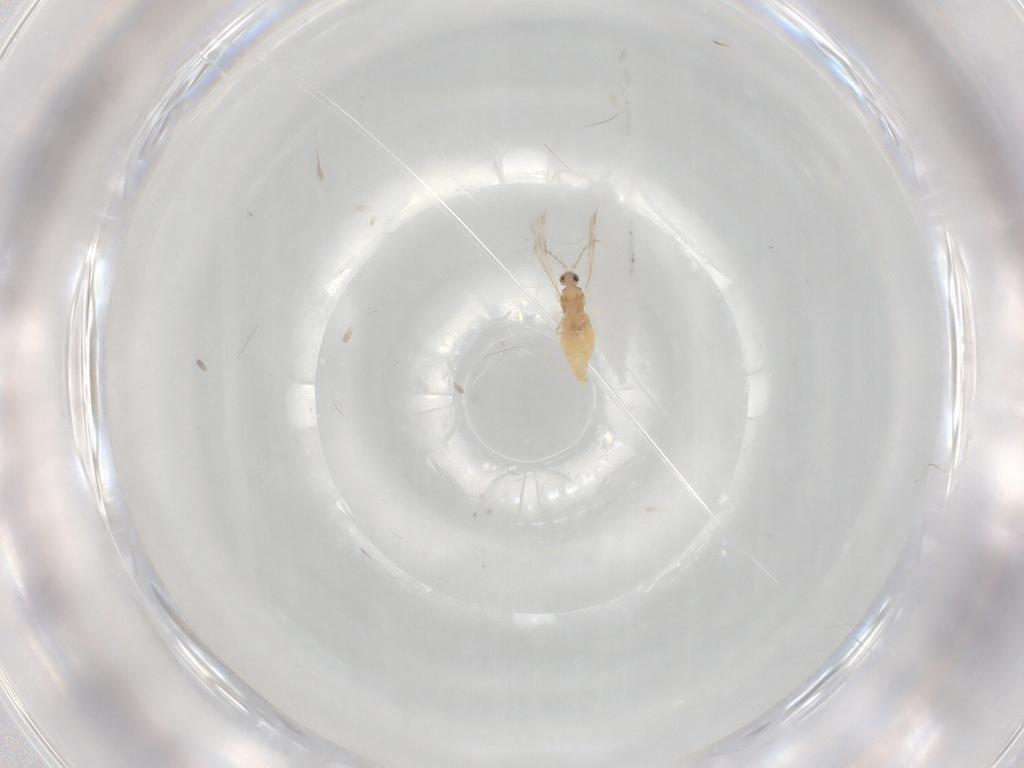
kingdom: Animalia
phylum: Arthropoda
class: Insecta
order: Diptera
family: Cecidomyiidae
